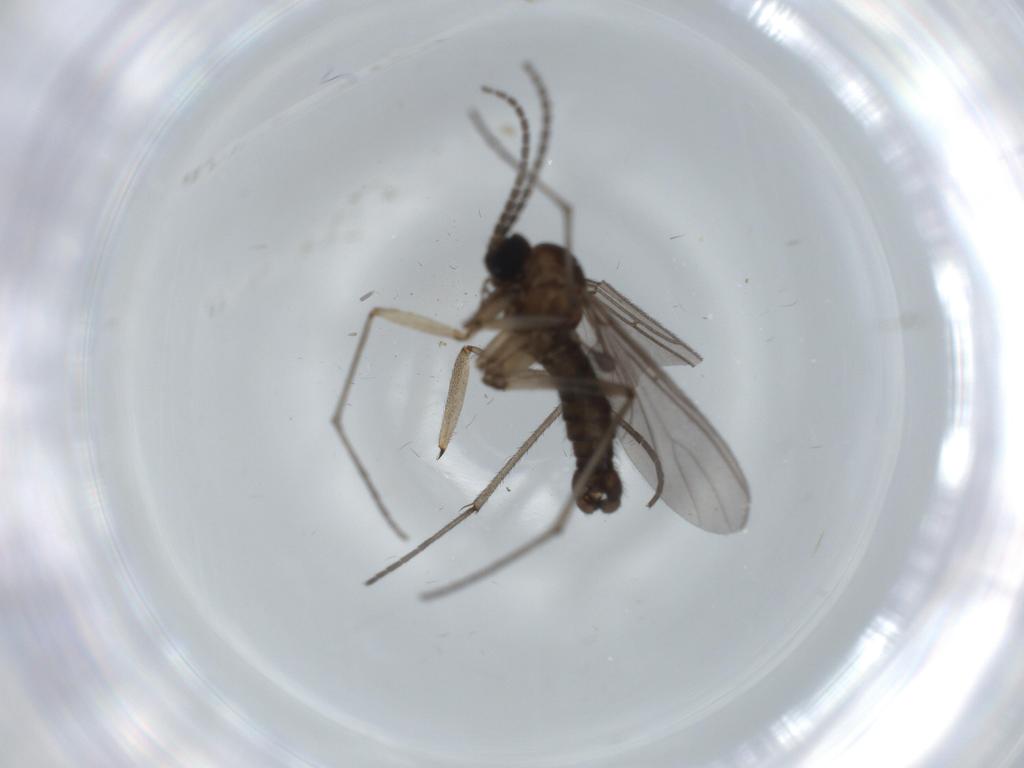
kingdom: Animalia
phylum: Arthropoda
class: Insecta
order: Diptera
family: Sciaridae
